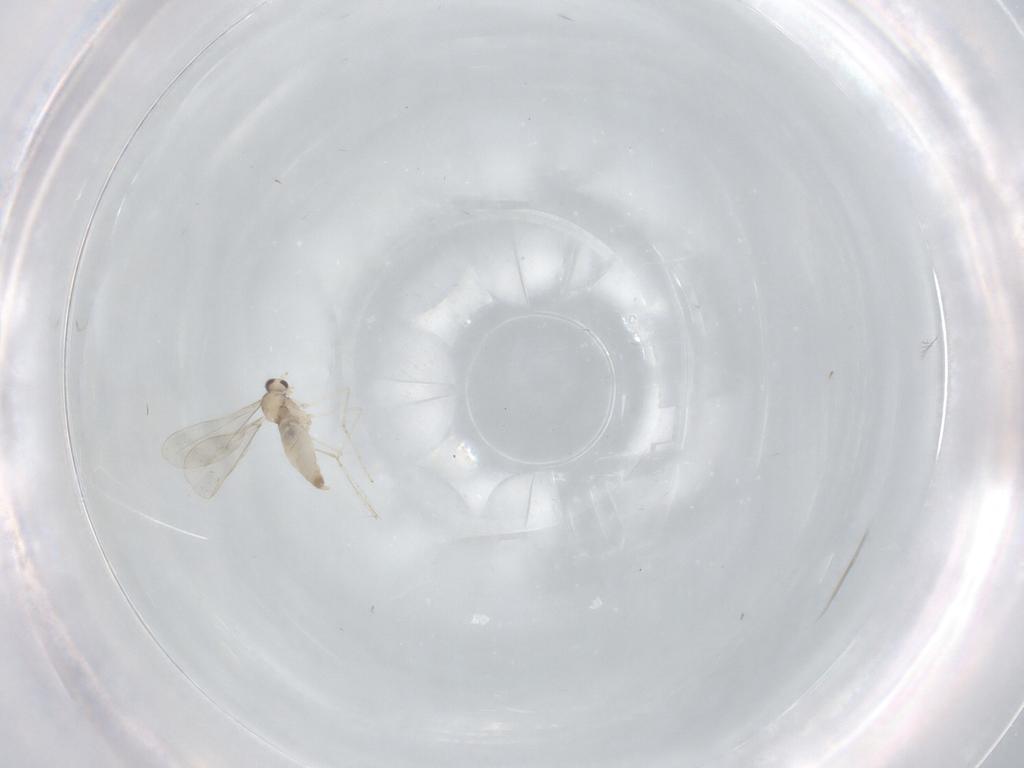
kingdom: Animalia
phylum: Arthropoda
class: Insecta
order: Diptera
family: Cecidomyiidae
